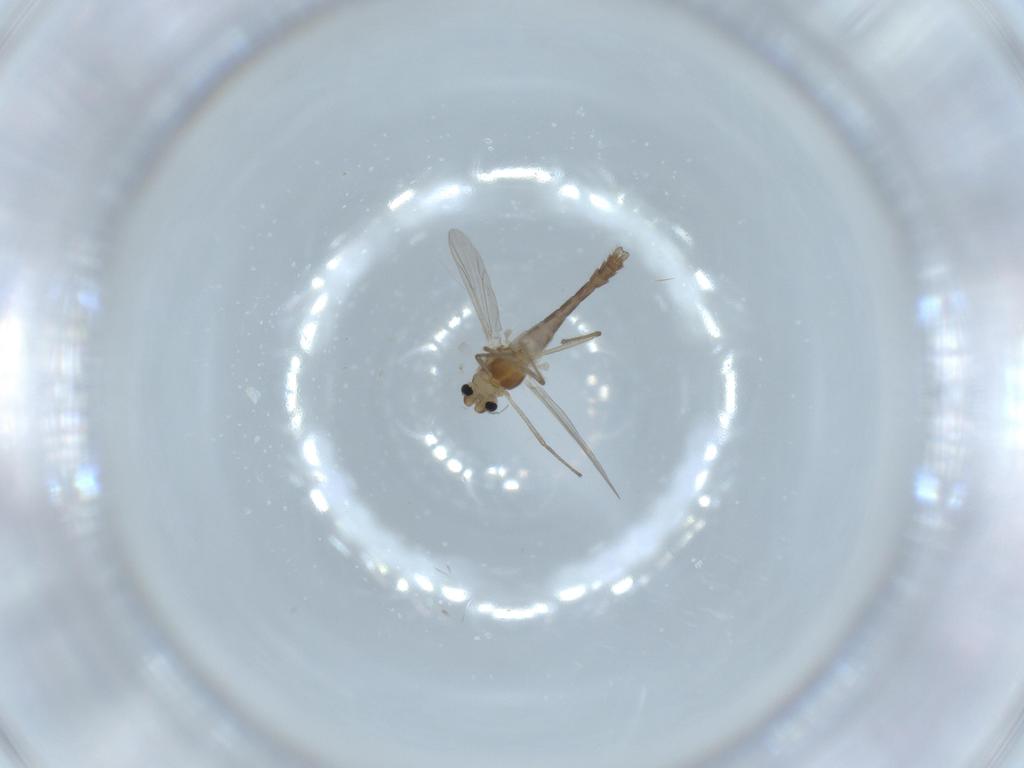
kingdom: Animalia
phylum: Arthropoda
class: Insecta
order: Diptera
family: Chironomidae
